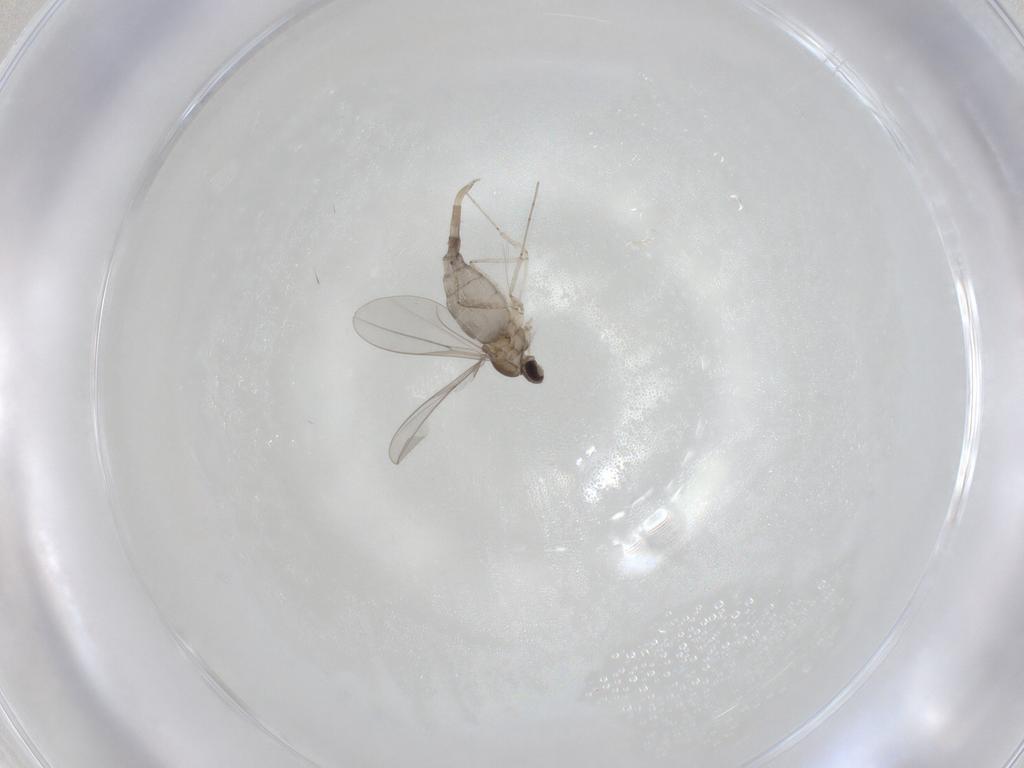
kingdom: Animalia
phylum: Arthropoda
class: Insecta
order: Diptera
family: Cecidomyiidae
